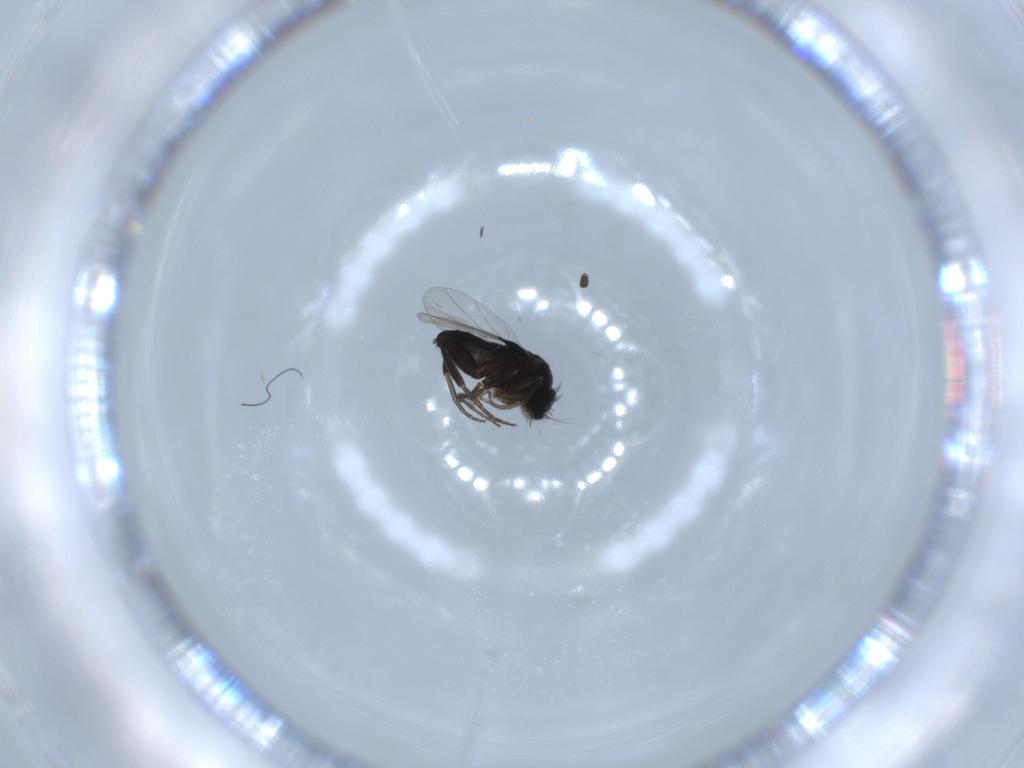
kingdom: Animalia
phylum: Arthropoda
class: Insecta
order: Diptera
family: Phoridae
